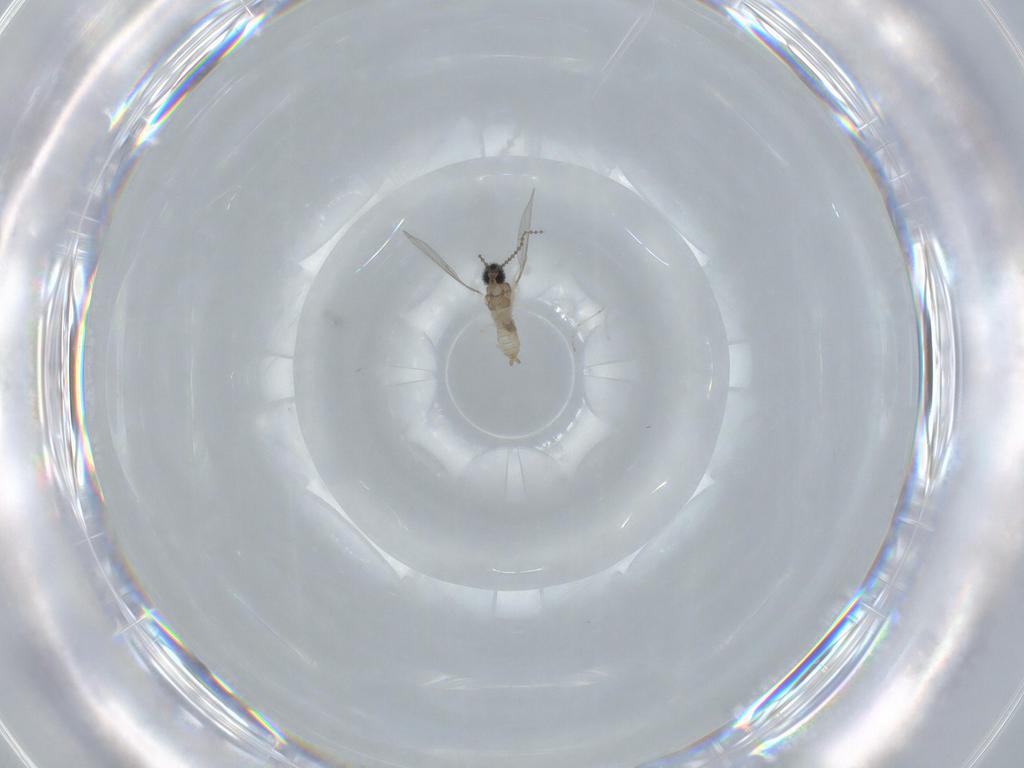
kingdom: Animalia
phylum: Arthropoda
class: Insecta
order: Diptera
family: Cecidomyiidae
